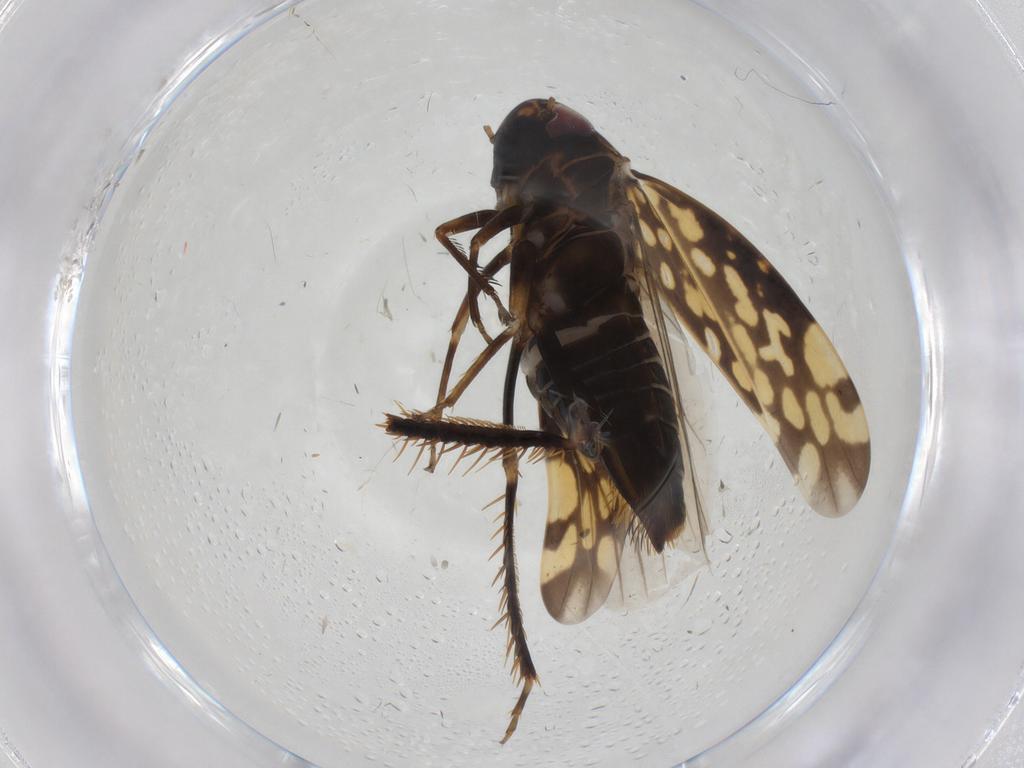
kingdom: Animalia
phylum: Arthropoda
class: Insecta
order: Hemiptera
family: Cicadellidae
